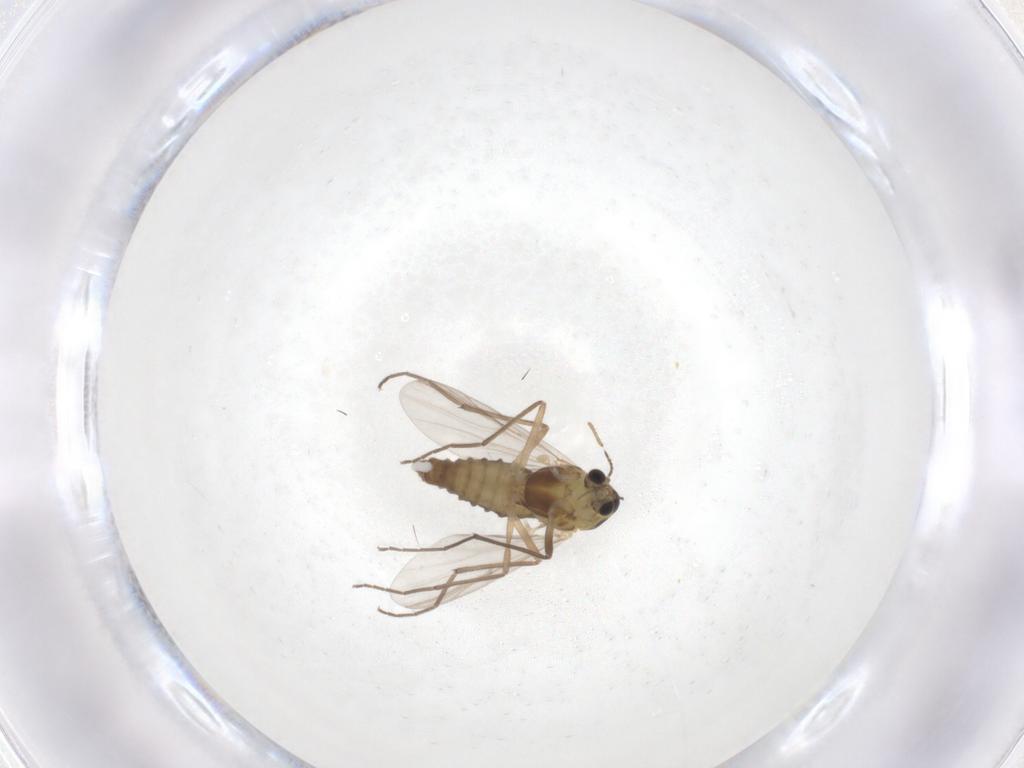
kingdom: Animalia
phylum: Arthropoda
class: Insecta
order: Diptera
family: Chironomidae
